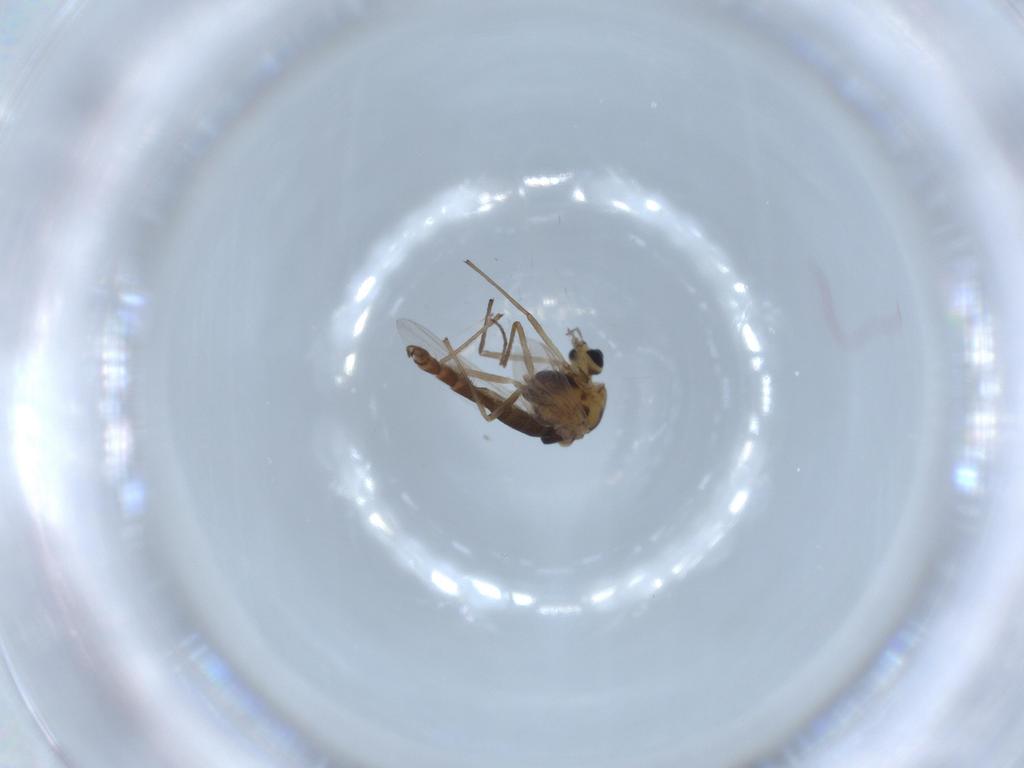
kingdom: Animalia
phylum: Arthropoda
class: Insecta
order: Diptera
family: Chironomidae
